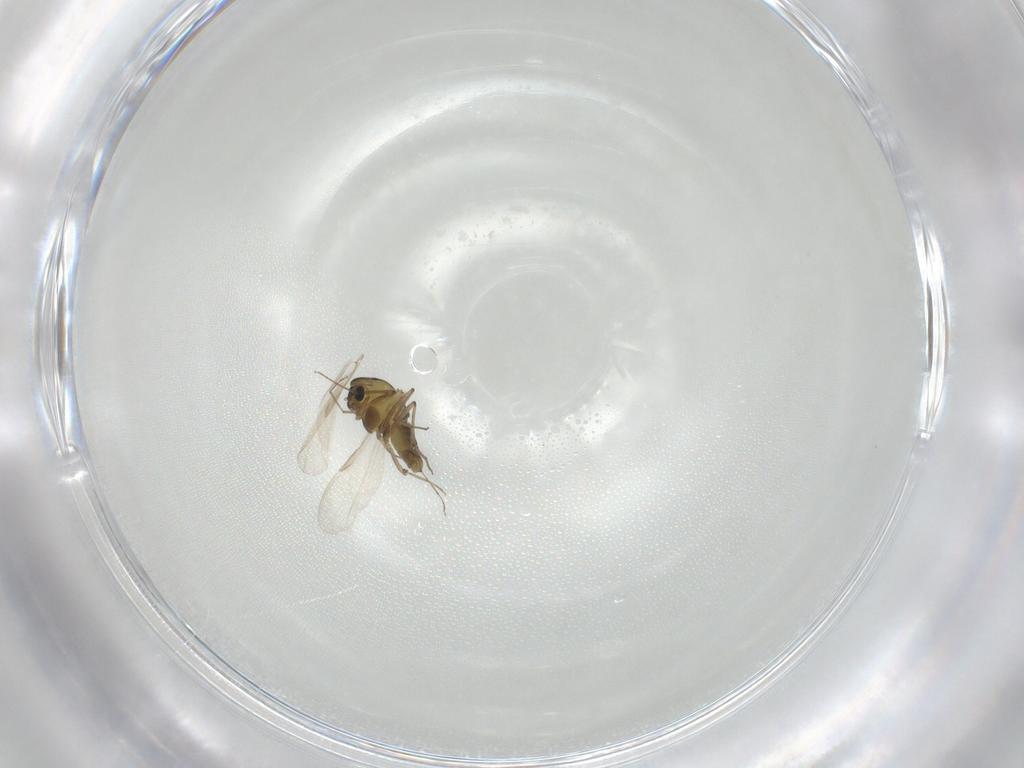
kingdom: Animalia
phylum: Arthropoda
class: Insecta
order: Diptera
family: Chironomidae
